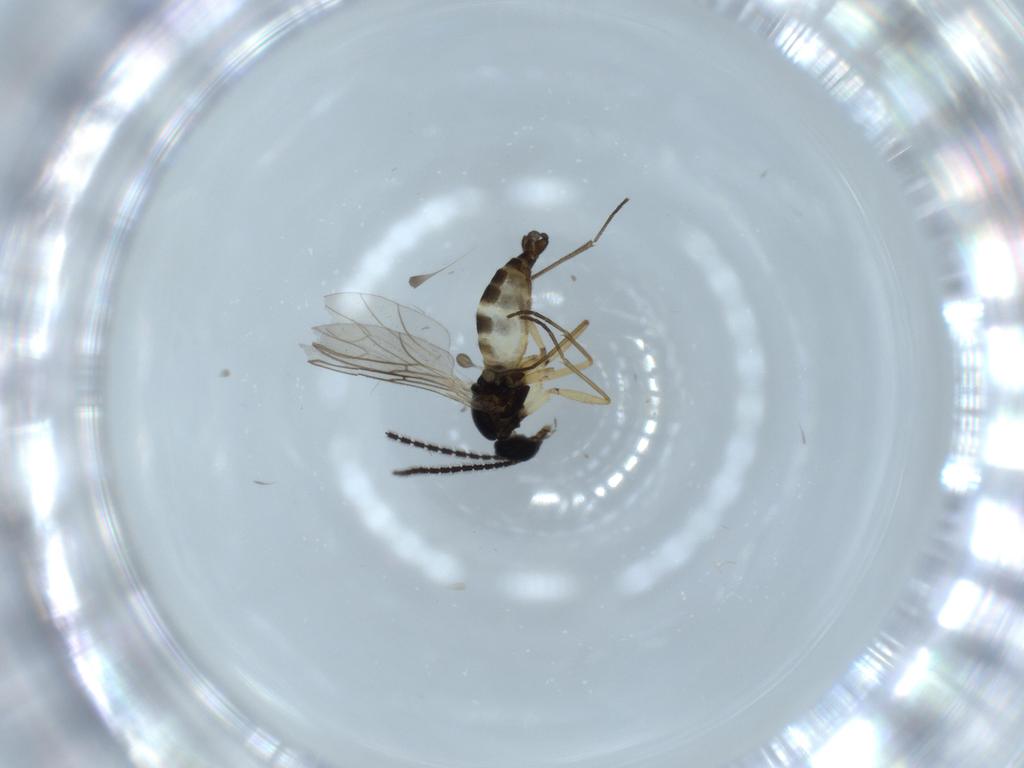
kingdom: Animalia
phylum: Arthropoda
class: Insecta
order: Diptera
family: Sciaridae
